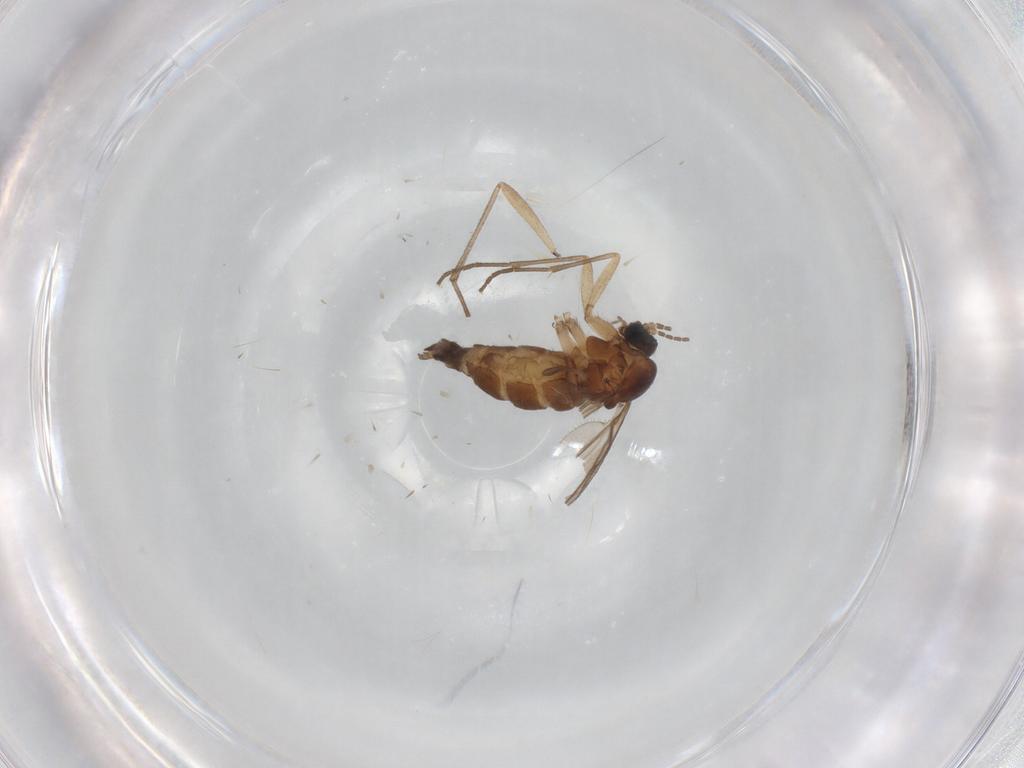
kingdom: Animalia
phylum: Arthropoda
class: Insecta
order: Diptera
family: Sciaridae
